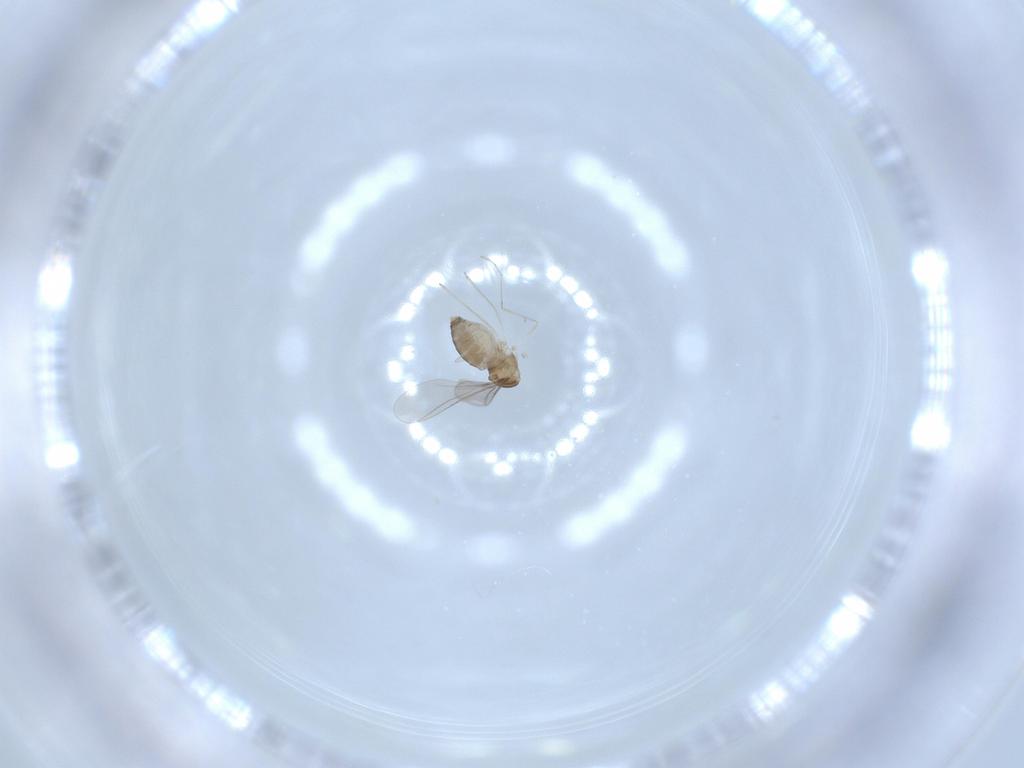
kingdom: Animalia
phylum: Arthropoda
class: Insecta
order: Diptera
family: Cecidomyiidae
